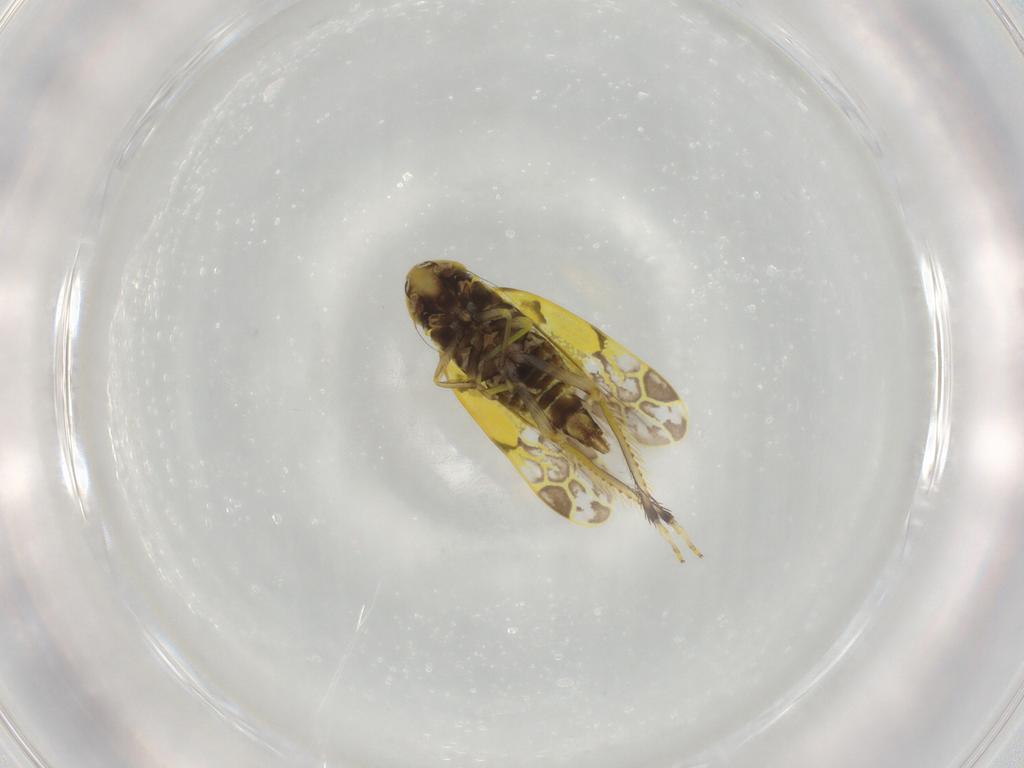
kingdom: Animalia
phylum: Arthropoda
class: Insecta
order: Hemiptera
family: Cicadellidae
